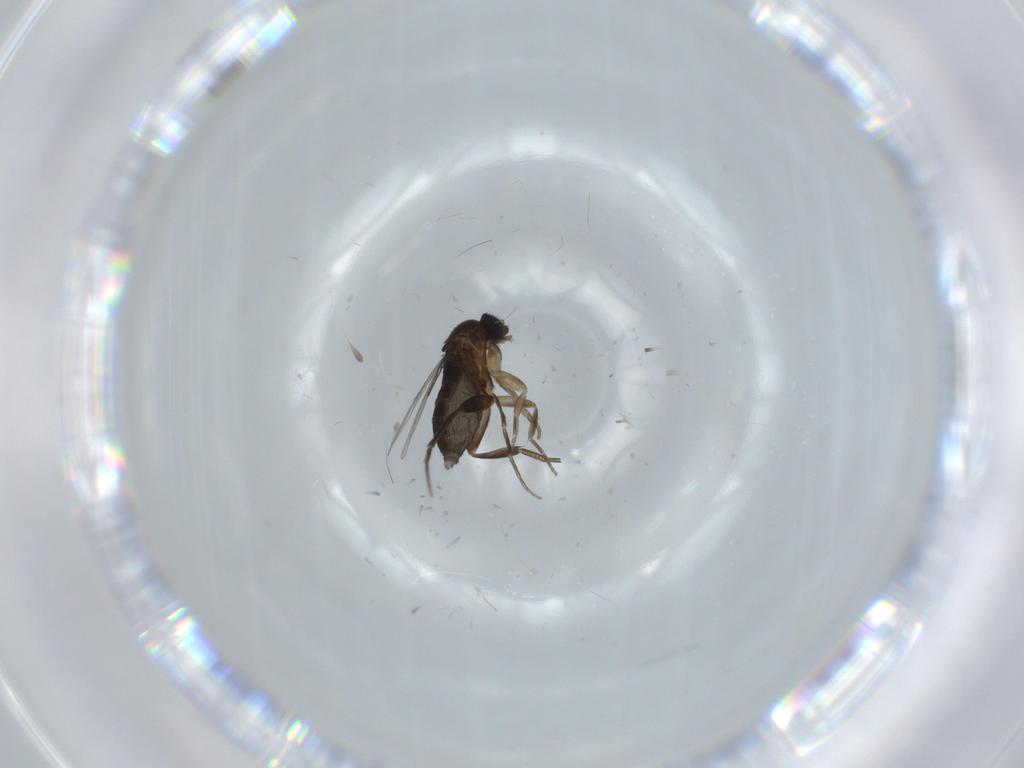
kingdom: Animalia
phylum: Arthropoda
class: Insecta
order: Diptera
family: Phoridae
